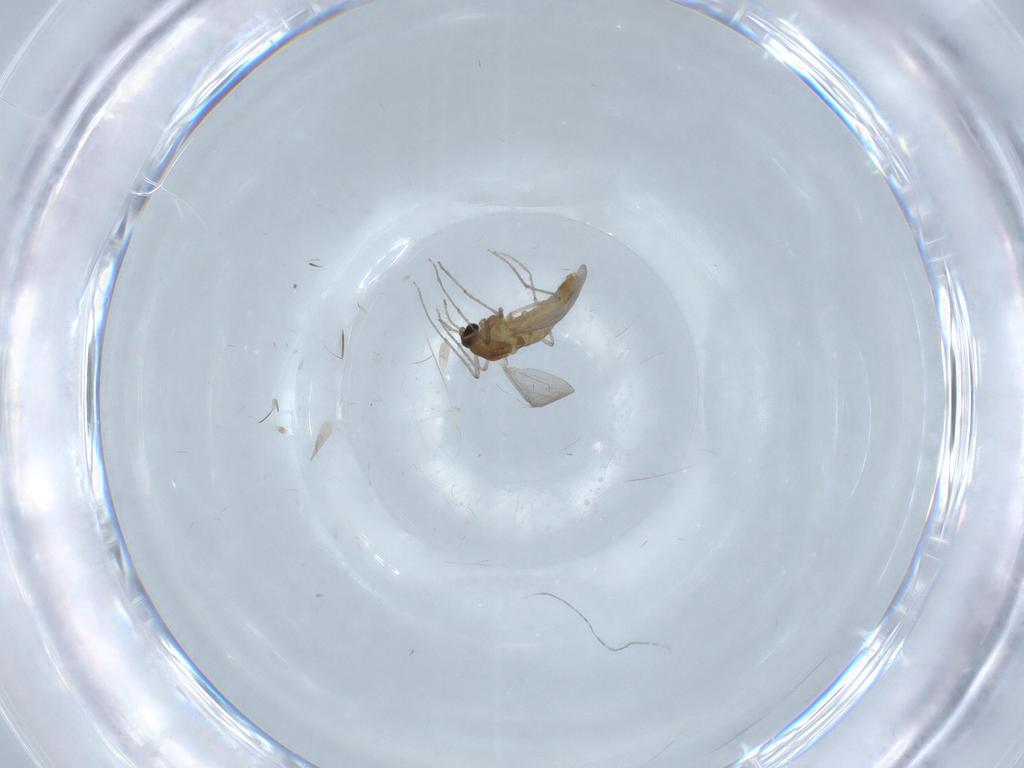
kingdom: Animalia
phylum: Arthropoda
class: Insecta
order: Diptera
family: Chironomidae
